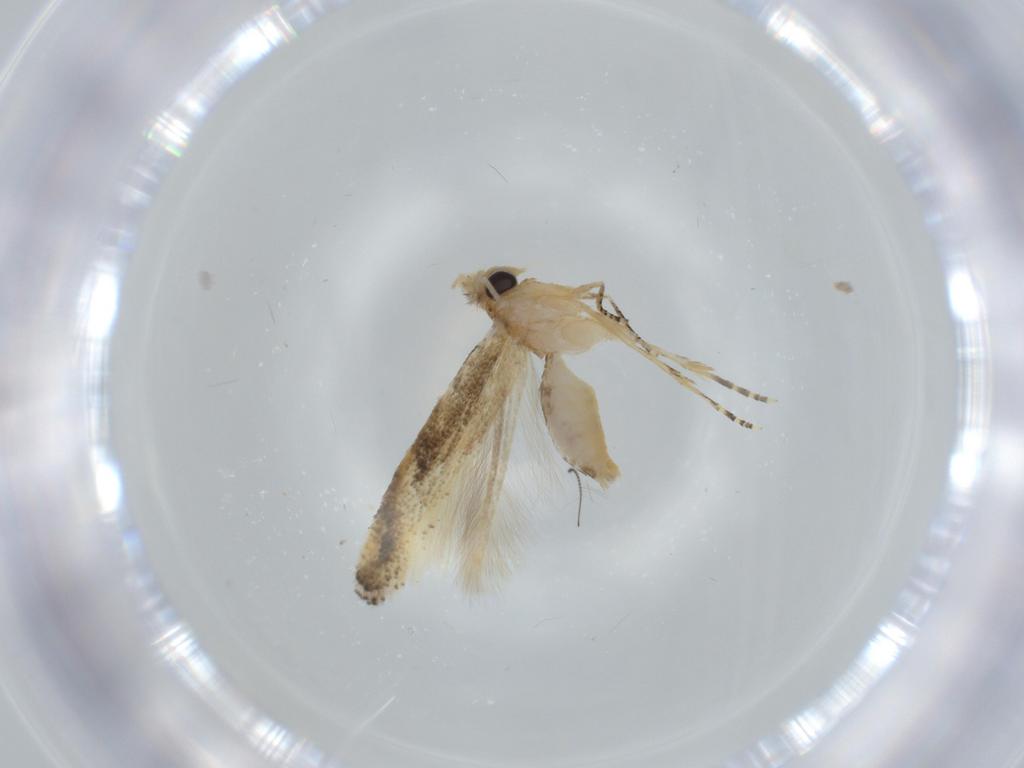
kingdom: Animalia
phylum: Arthropoda
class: Insecta
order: Lepidoptera
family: Bucculatricidae
